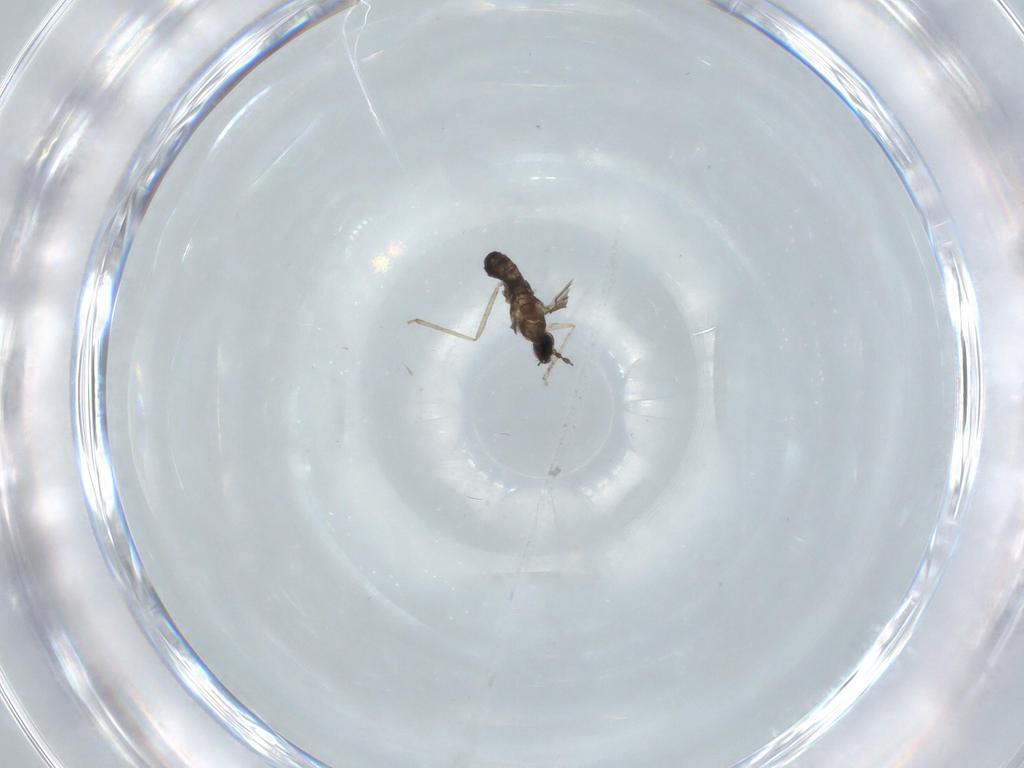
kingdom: Animalia
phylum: Arthropoda
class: Insecta
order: Diptera
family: Cecidomyiidae
